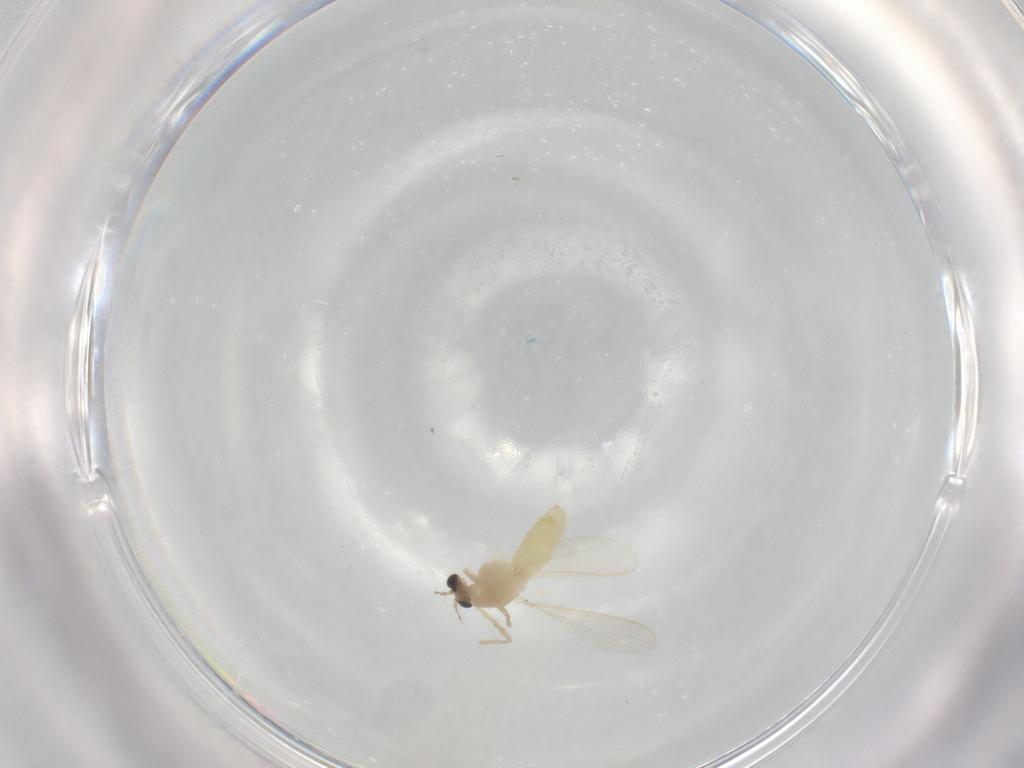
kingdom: Animalia
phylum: Arthropoda
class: Insecta
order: Diptera
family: Chironomidae
